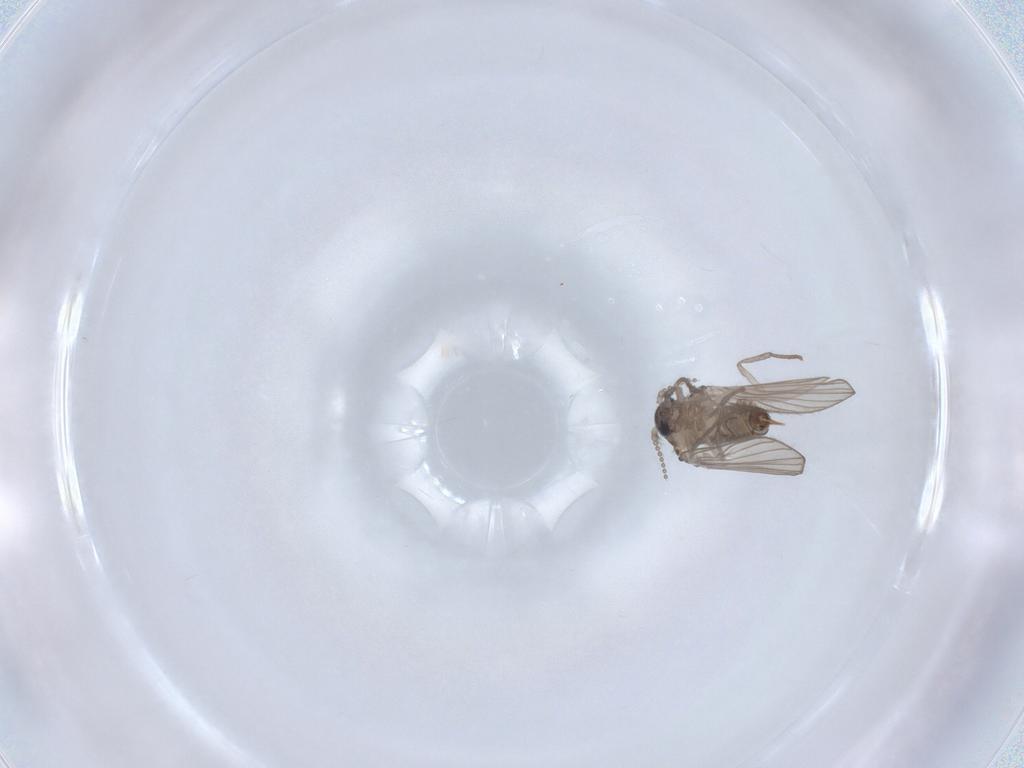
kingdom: Animalia
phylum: Arthropoda
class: Insecta
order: Diptera
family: Psychodidae
